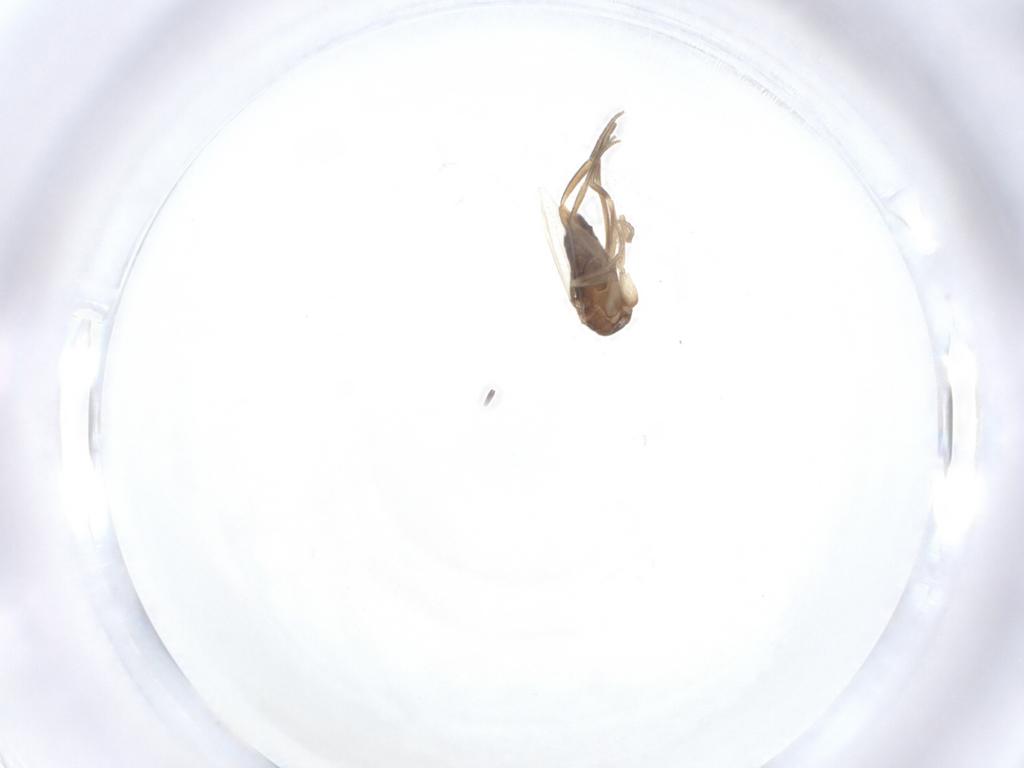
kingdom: Animalia
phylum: Arthropoda
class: Insecta
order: Diptera
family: Phoridae
